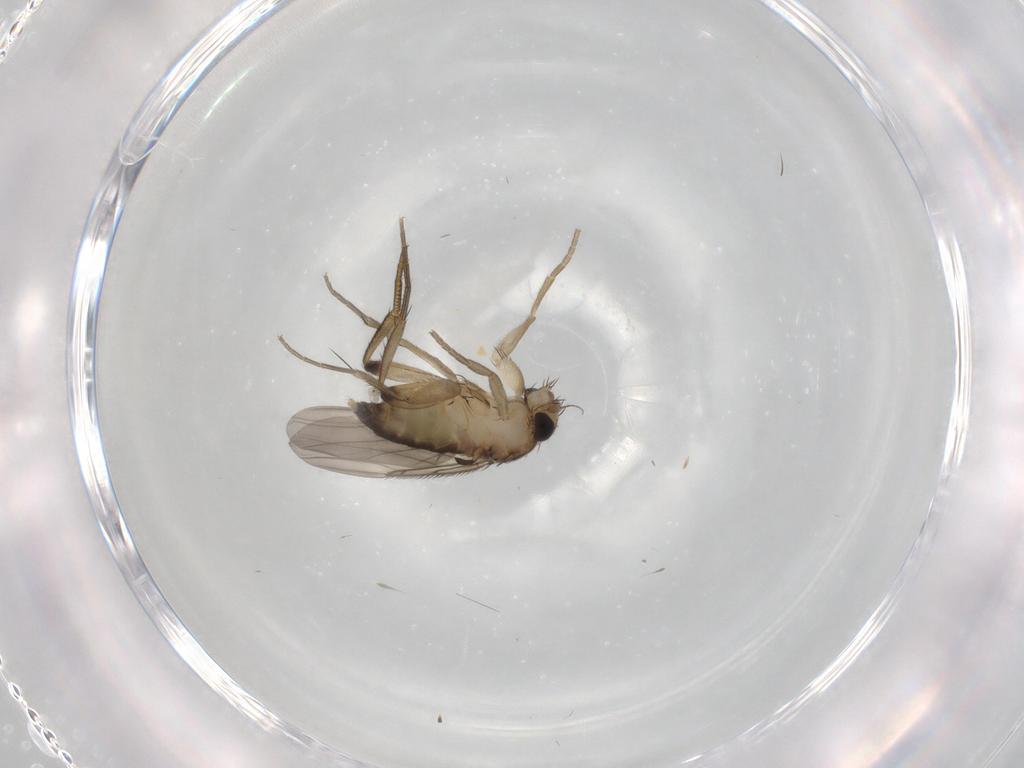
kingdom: Animalia
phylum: Arthropoda
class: Insecta
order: Diptera
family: Phoridae
